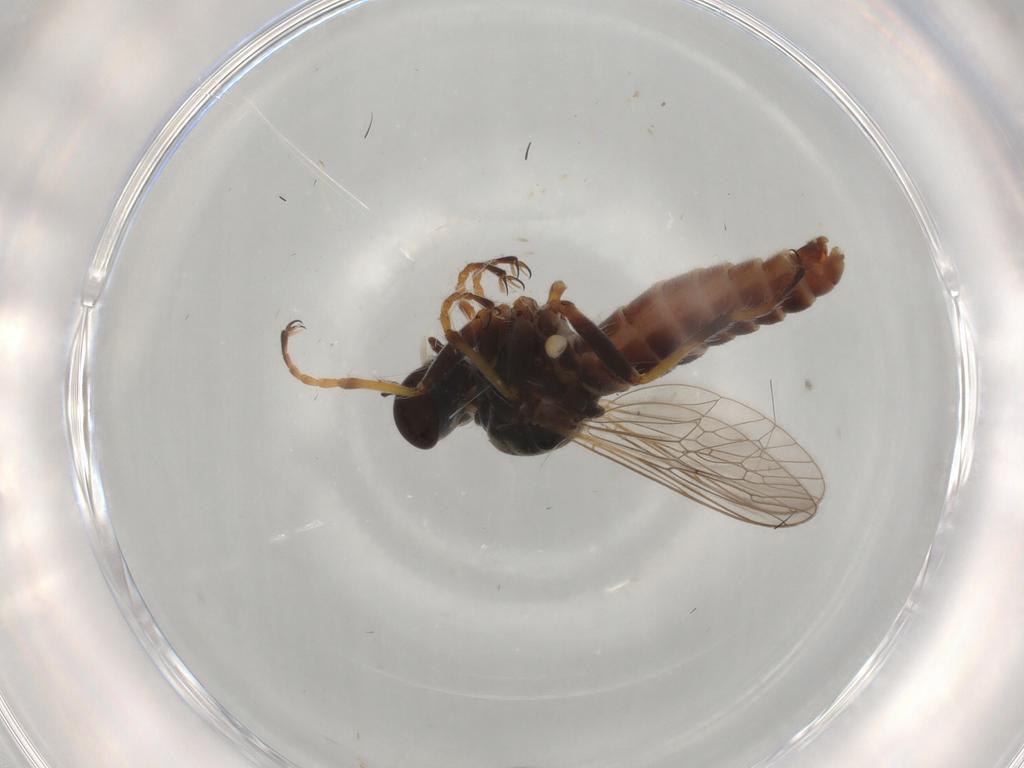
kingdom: Animalia
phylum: Arthropoda
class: Insecta
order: Diptera
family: Asilidae
